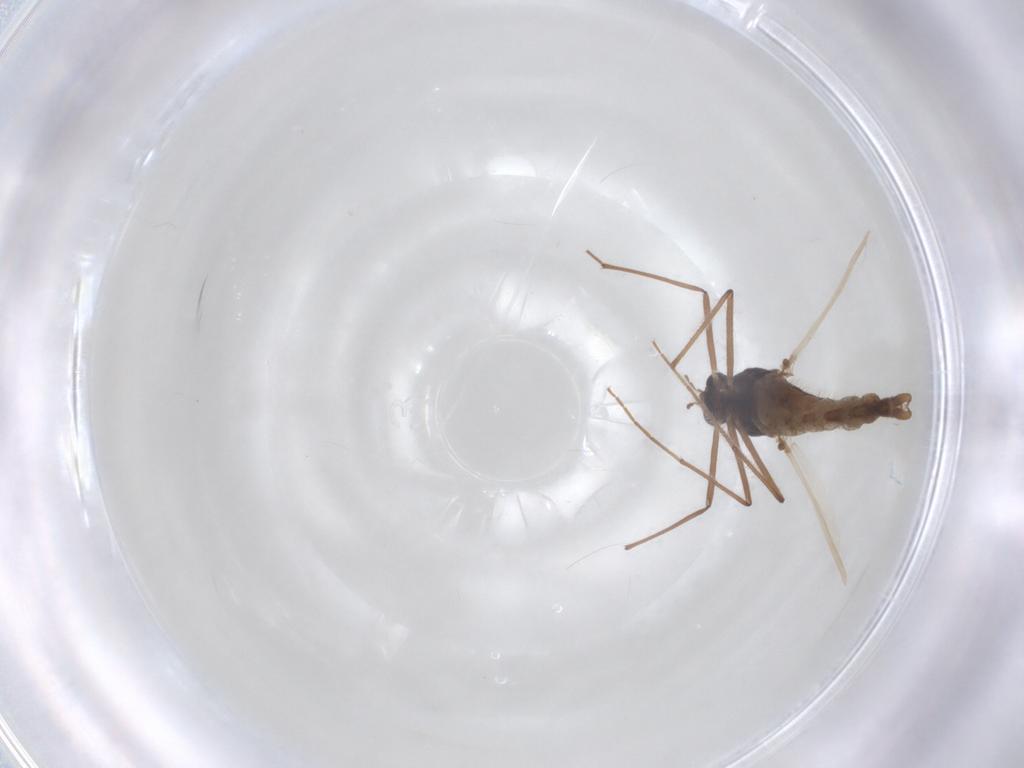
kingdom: Animalia
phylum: Arthropoda
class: Insecta
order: Diptera
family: Chironomidae
